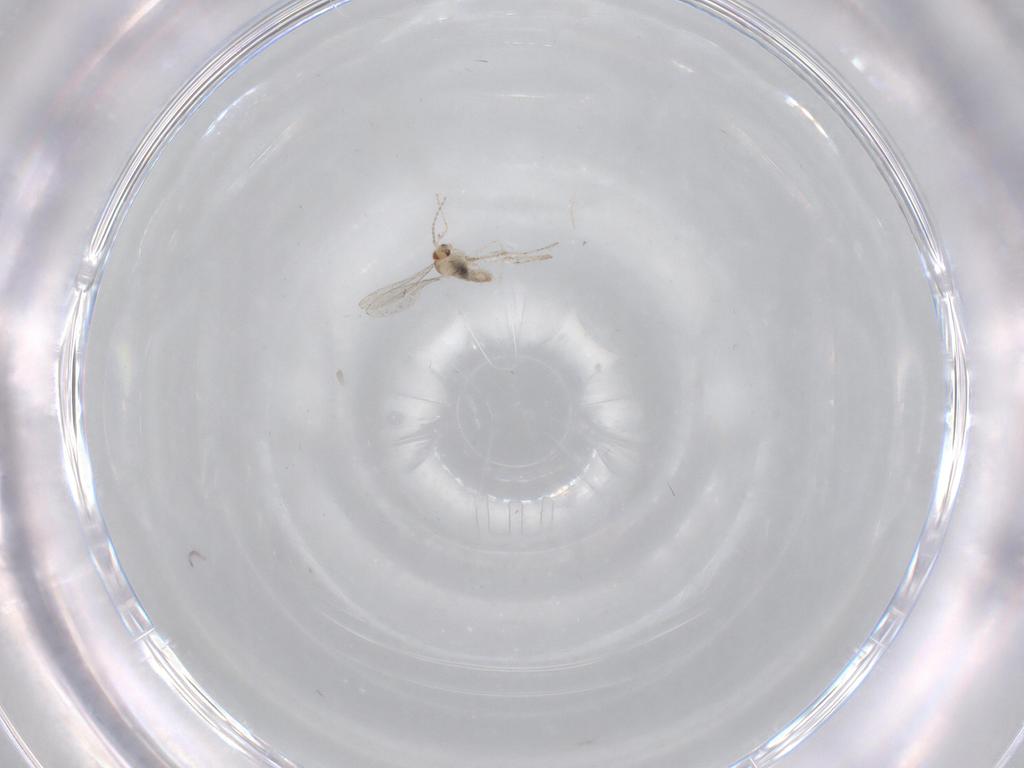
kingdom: Animalia
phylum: Arthropoda
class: Insecta
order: Diptera
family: Cecidomyiidae
